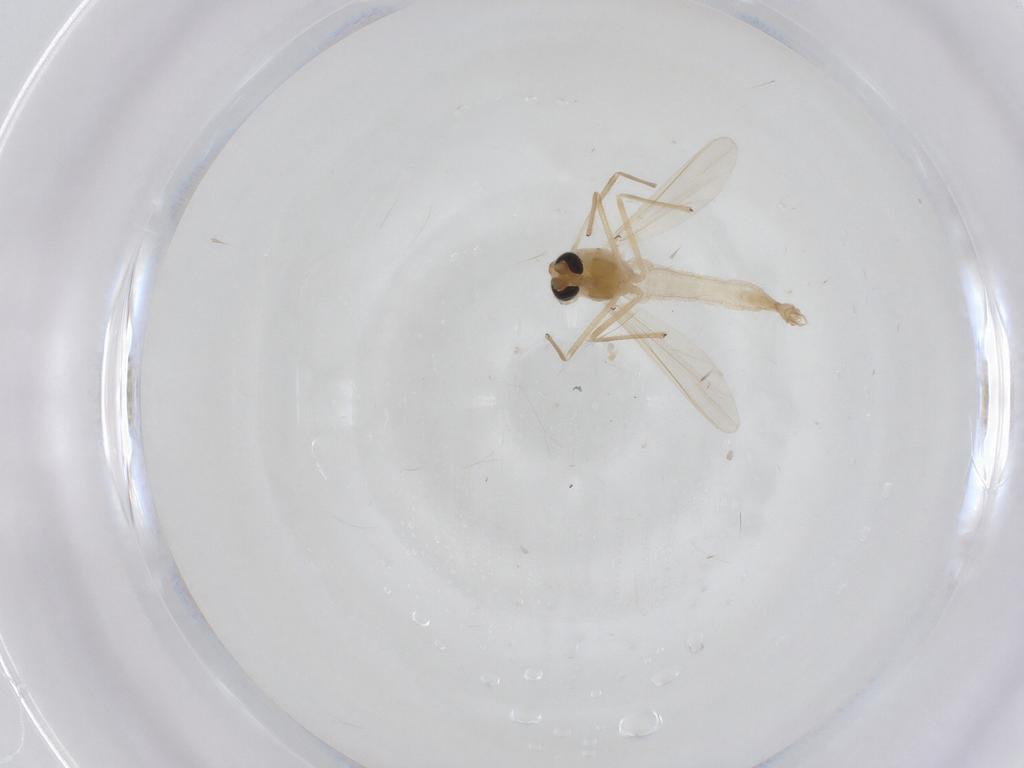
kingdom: Animalia
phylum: Arthropoda
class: Insecta
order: Diptera
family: Chironomidae
